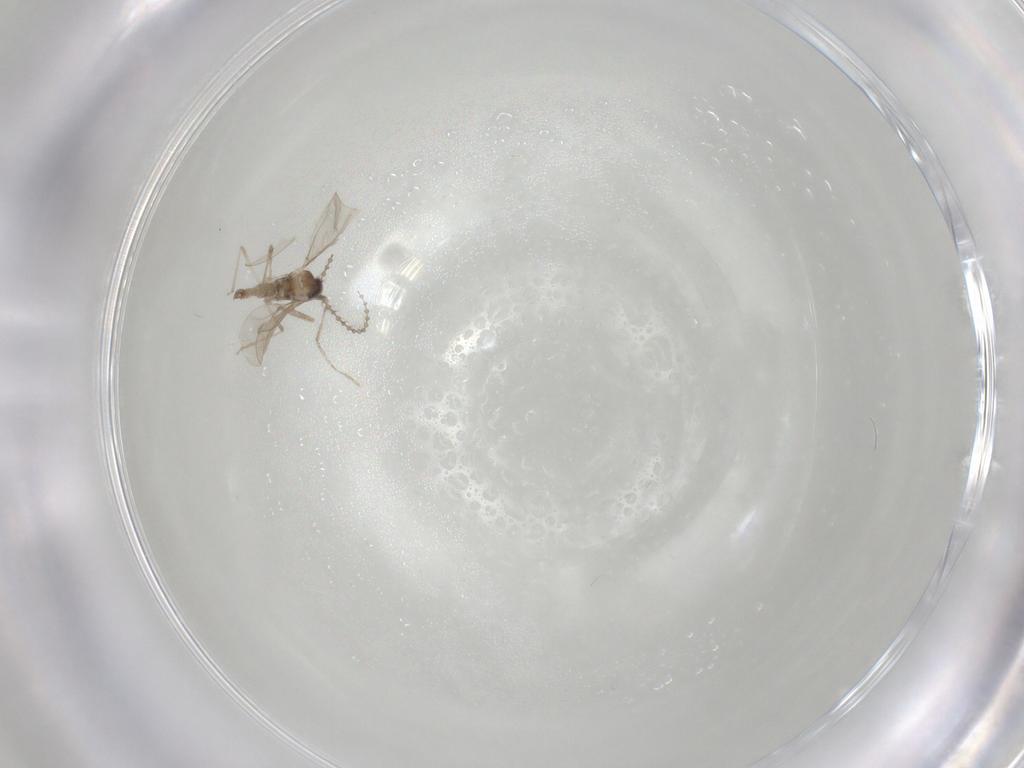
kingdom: Animalia
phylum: Arthropoda
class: Insecta
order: Diptera
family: Cecidomyiidae
